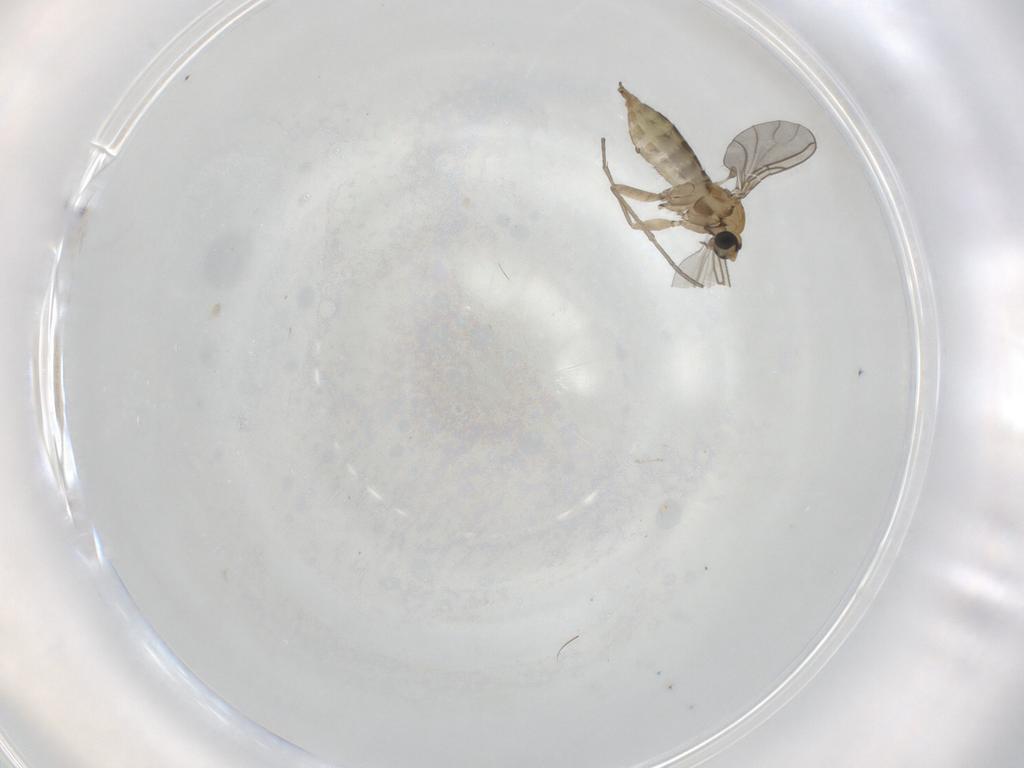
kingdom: Animalia
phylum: Arthropoda
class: Insecta
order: Diptera
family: Sciaridae
